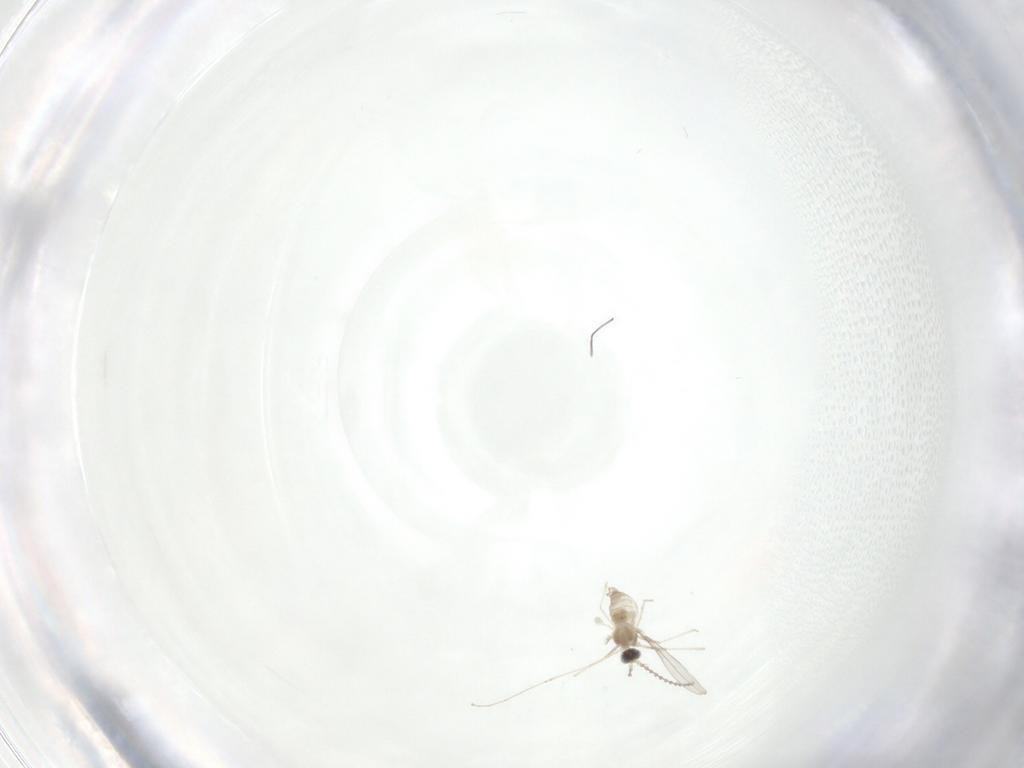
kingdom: Animalia
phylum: Arthropoda
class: Insecta
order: Diptera
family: Cecidomyiidae
